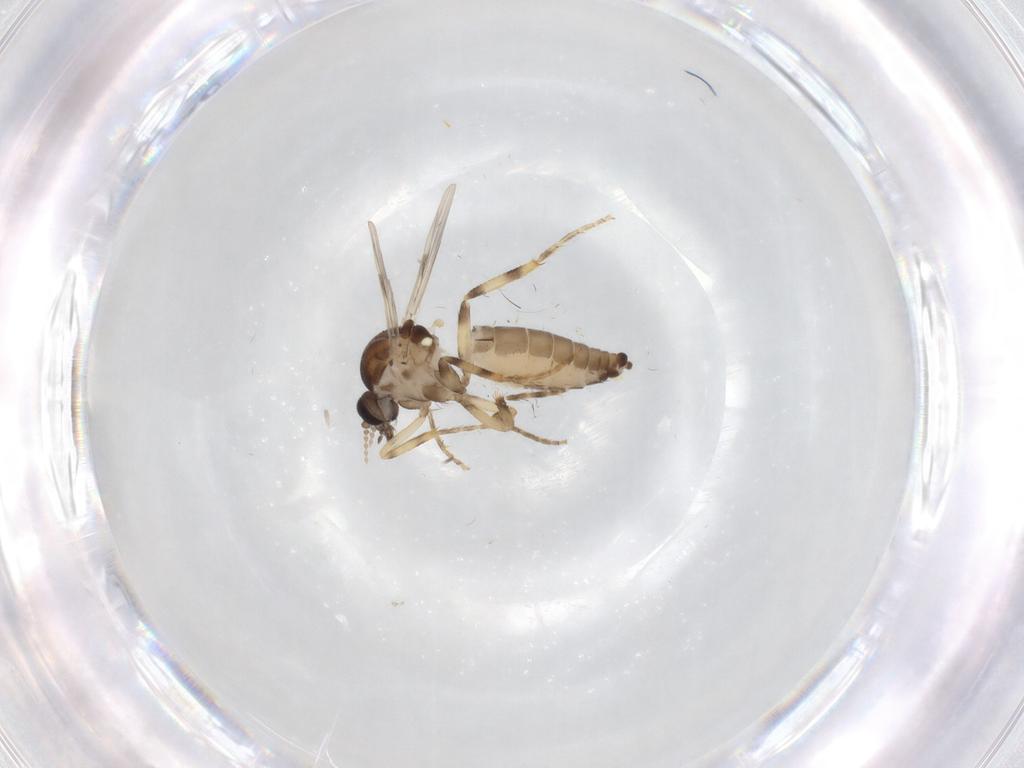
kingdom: Animalia
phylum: Arthropoda
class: Insecta
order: Diptera
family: Ceratopogonidae
